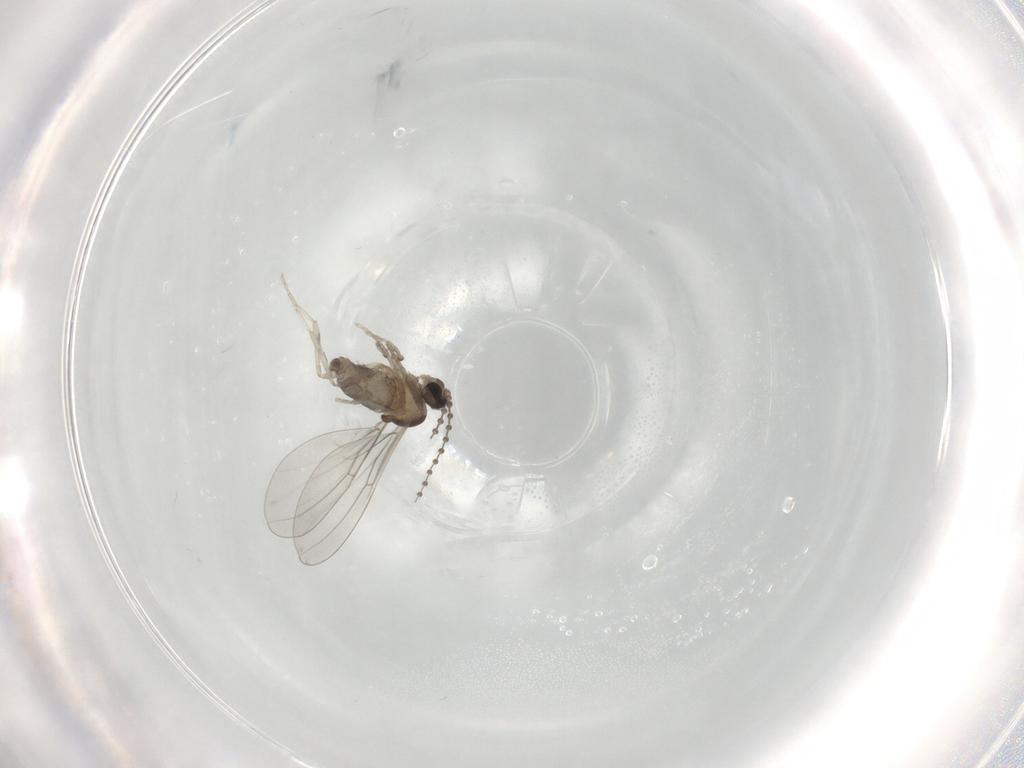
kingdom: Animalia
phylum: Arthropoda
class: Insecta
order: Diptera
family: Cecidomyiidae
